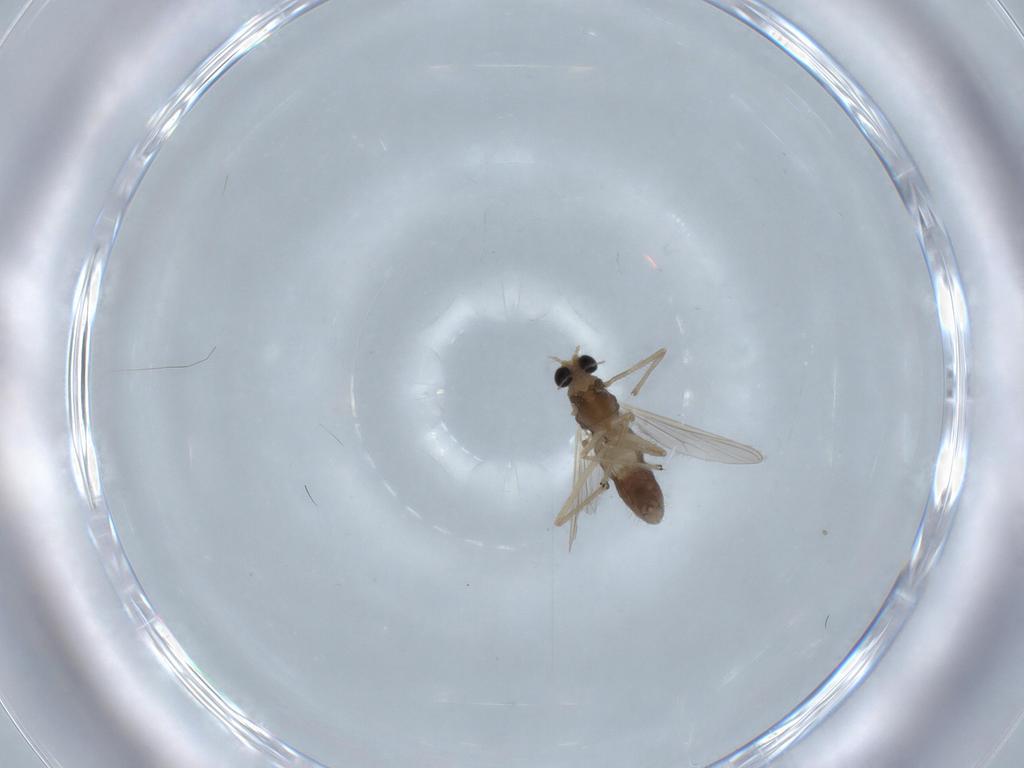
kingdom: Animalia
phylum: Arthropoda
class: Insecta
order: Diptera
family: Chironomidae
